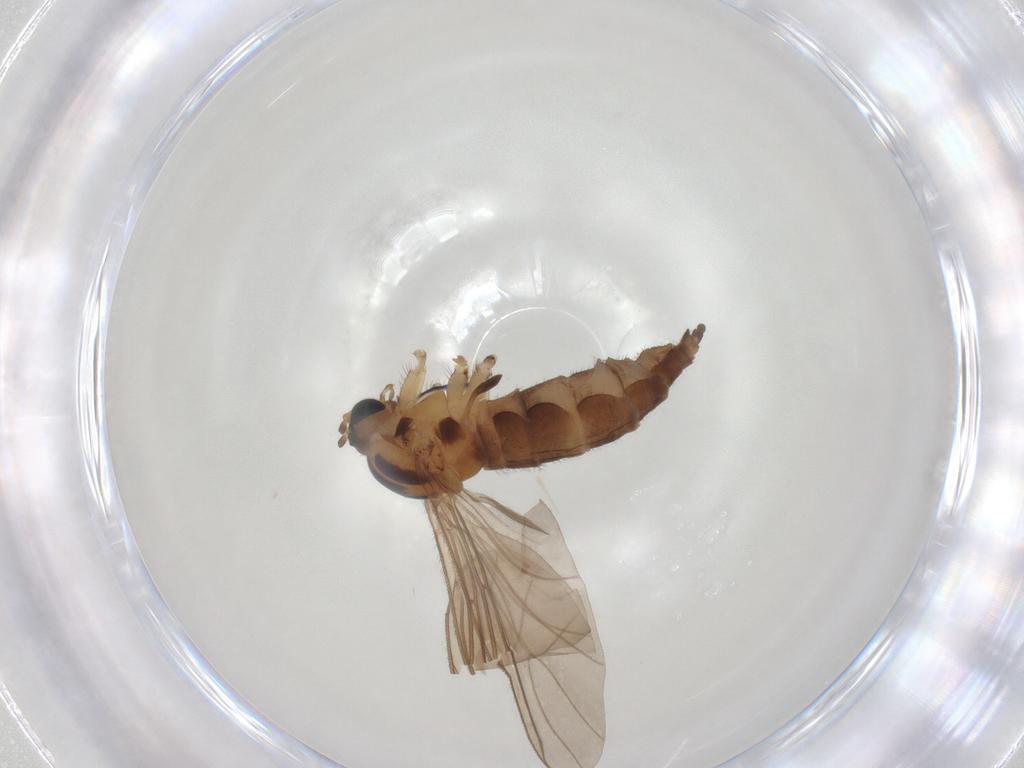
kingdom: Animalia
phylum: Arthropoda
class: Insecta
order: Diptera
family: Sciaridae
